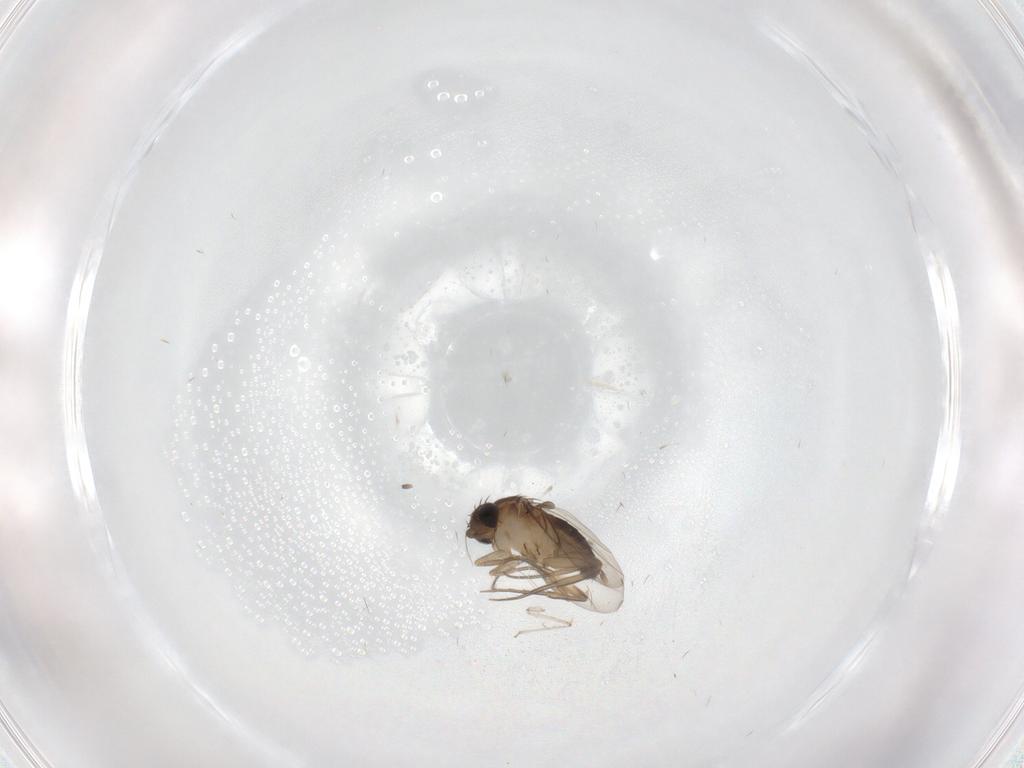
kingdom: Animalia
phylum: Arthropoda
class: Insecta
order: Diptera
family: Cecidomyiidae
